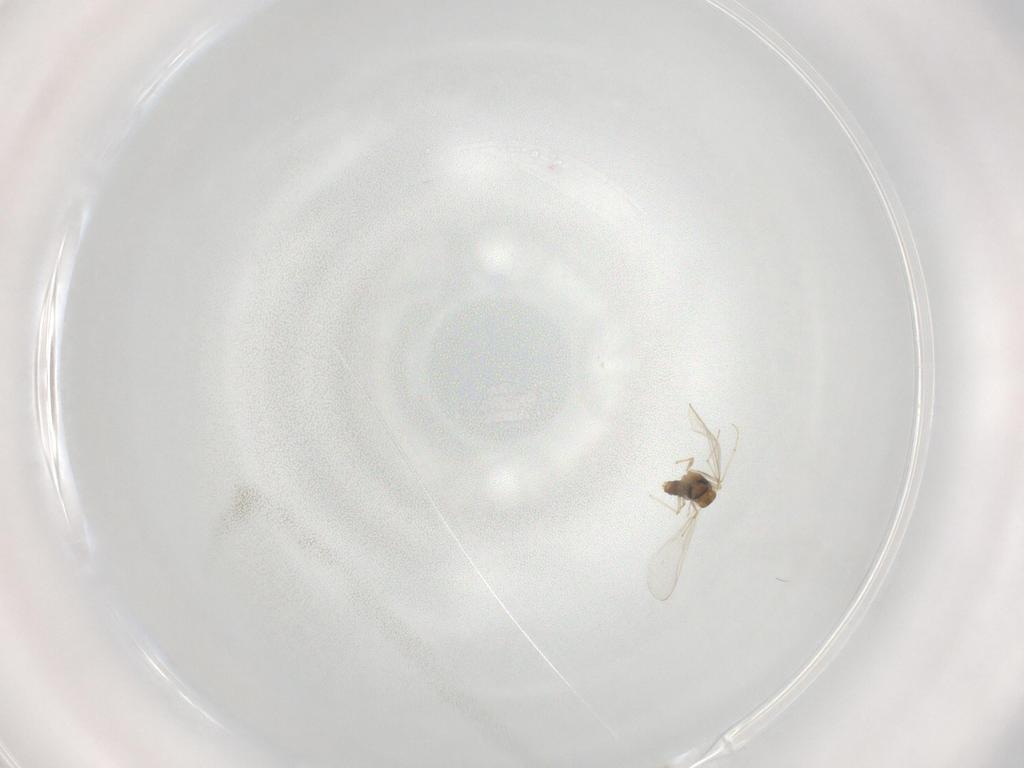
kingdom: Animalia
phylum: Arthropoda
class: Insecta
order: Diptera
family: Chironomidae
